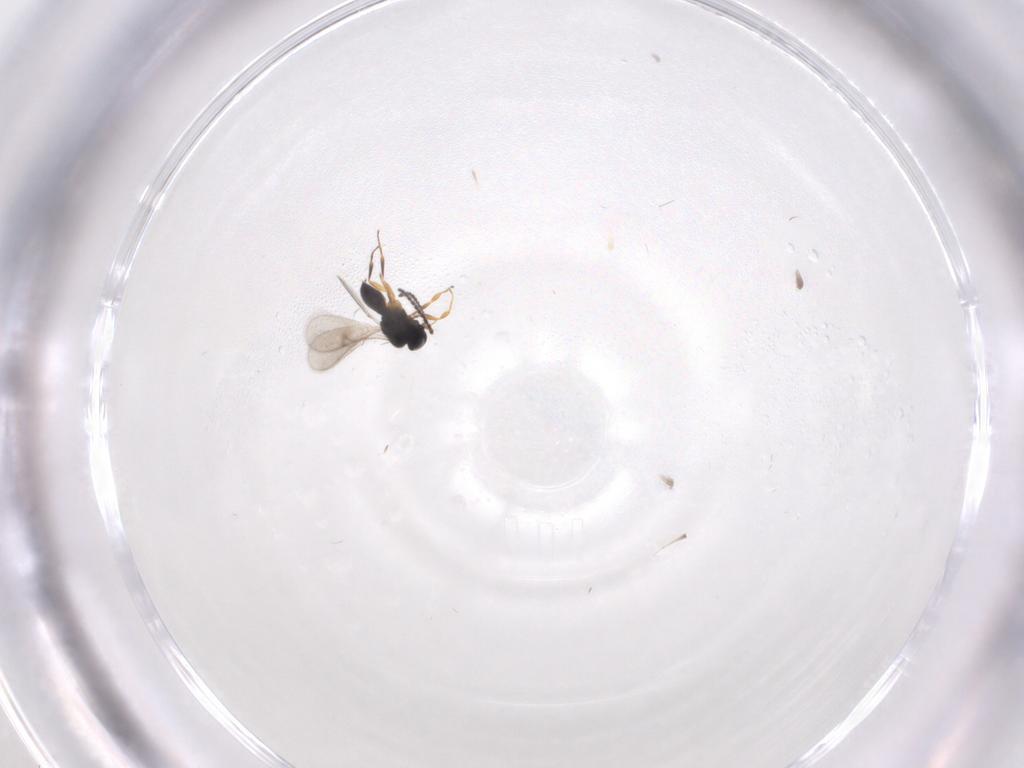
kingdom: Animalia
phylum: Arthropoda
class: Insecta
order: Hymenoptera
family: Scelionidae
